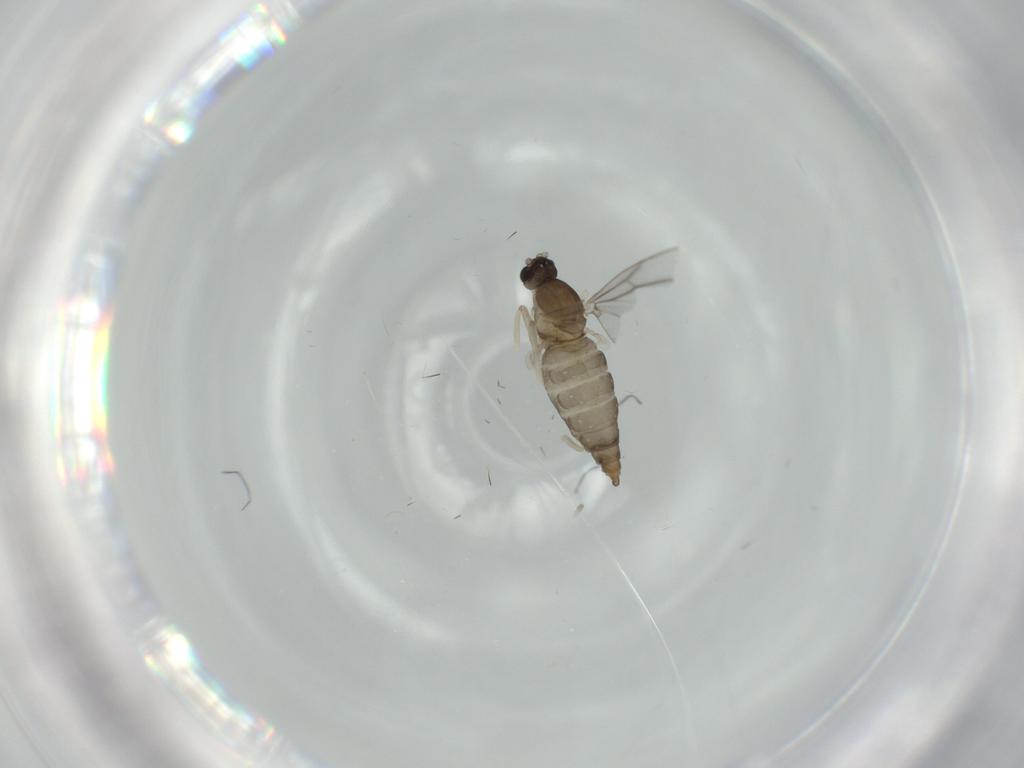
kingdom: Animalia
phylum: Arthropoda
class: Insecta
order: Diptera
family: Cecidomyiidae
